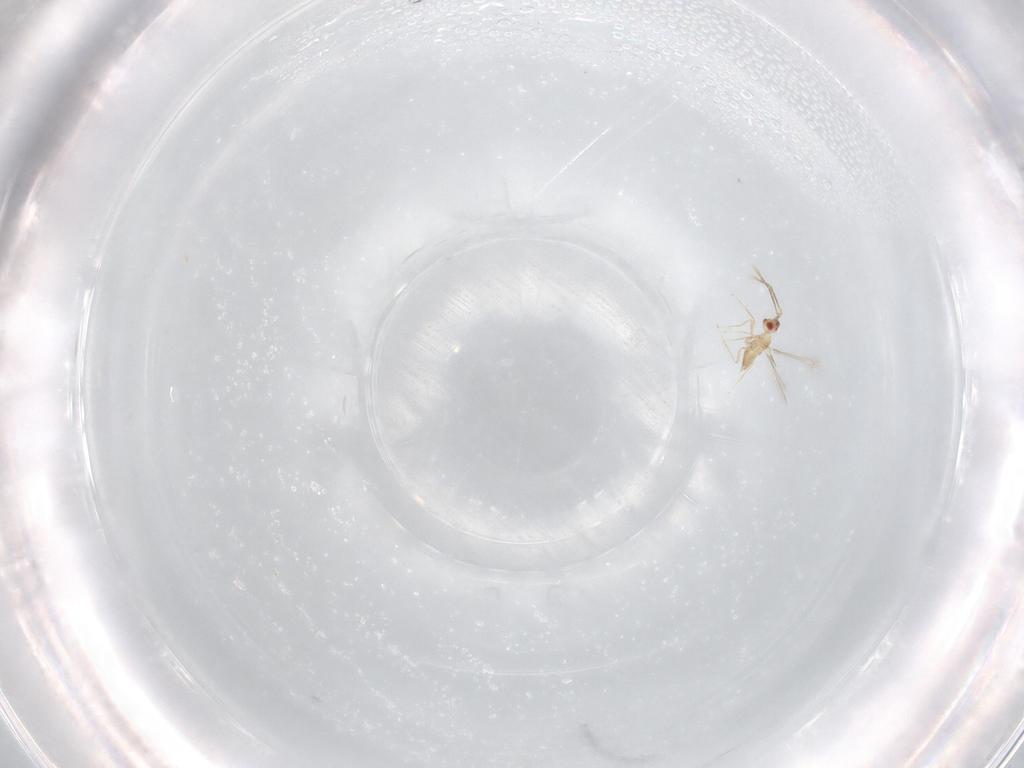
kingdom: Animalia
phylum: Arthropoda
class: Insecta
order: Hymenoptera
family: Mymaridae
